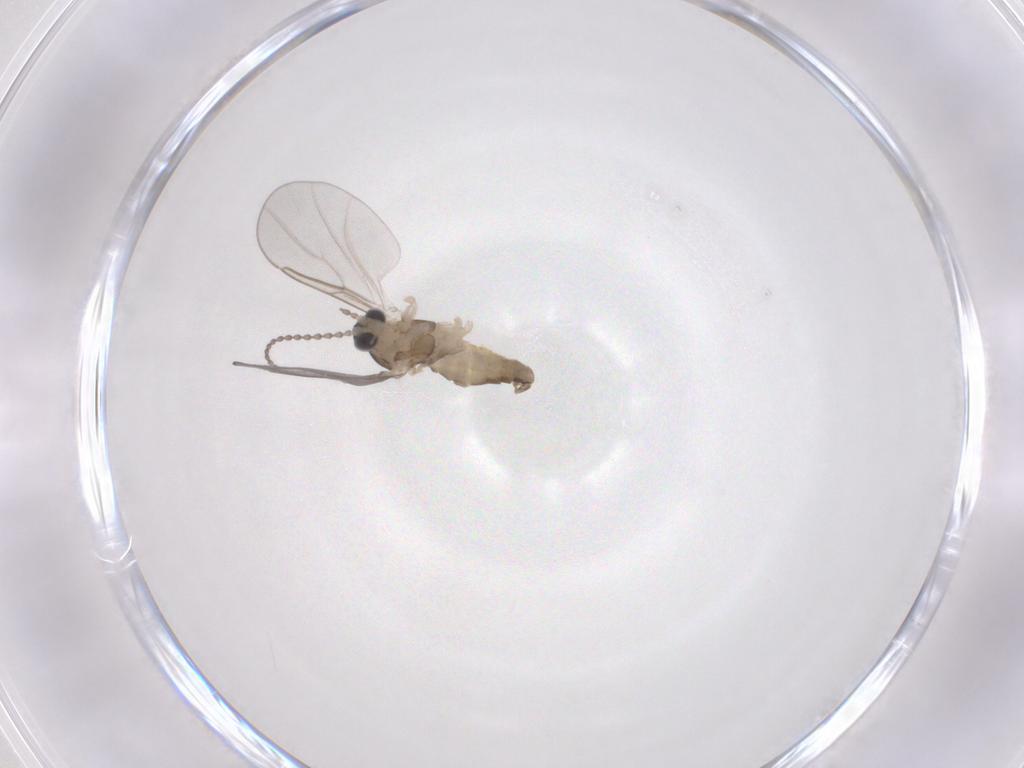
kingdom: Animalia
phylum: Arthropoda
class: Insecta
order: Diptera
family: Cecidomyiidae
